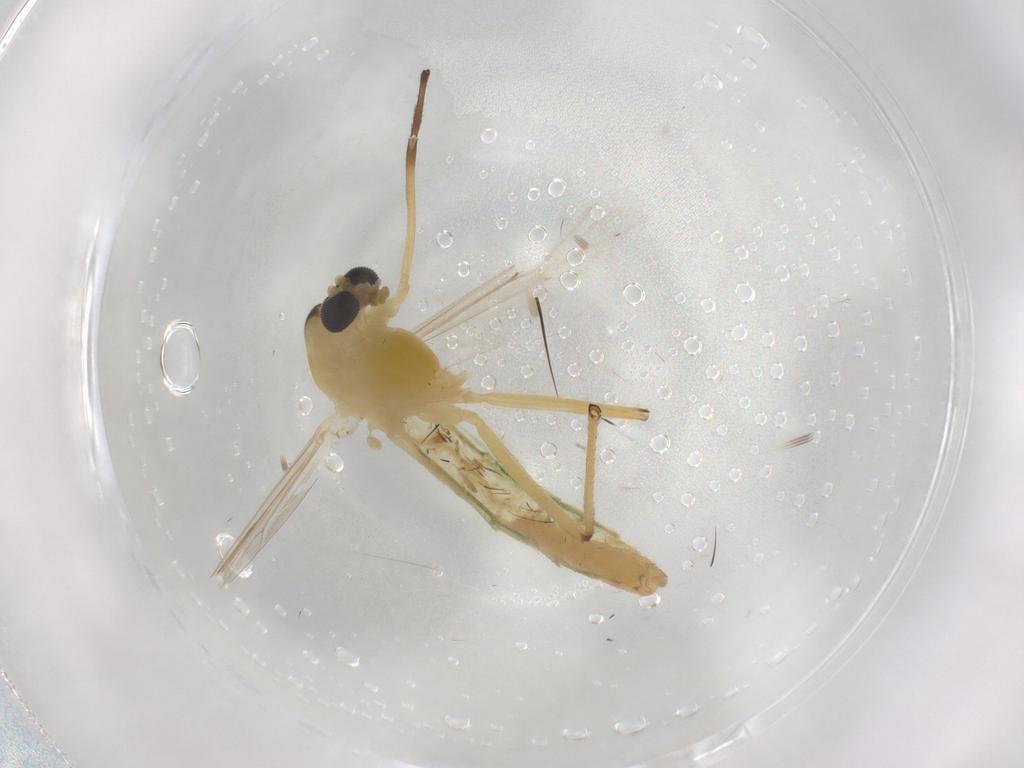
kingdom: Animalia
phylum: Arthropoda
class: Insecta
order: Diptera
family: Chironomidae
